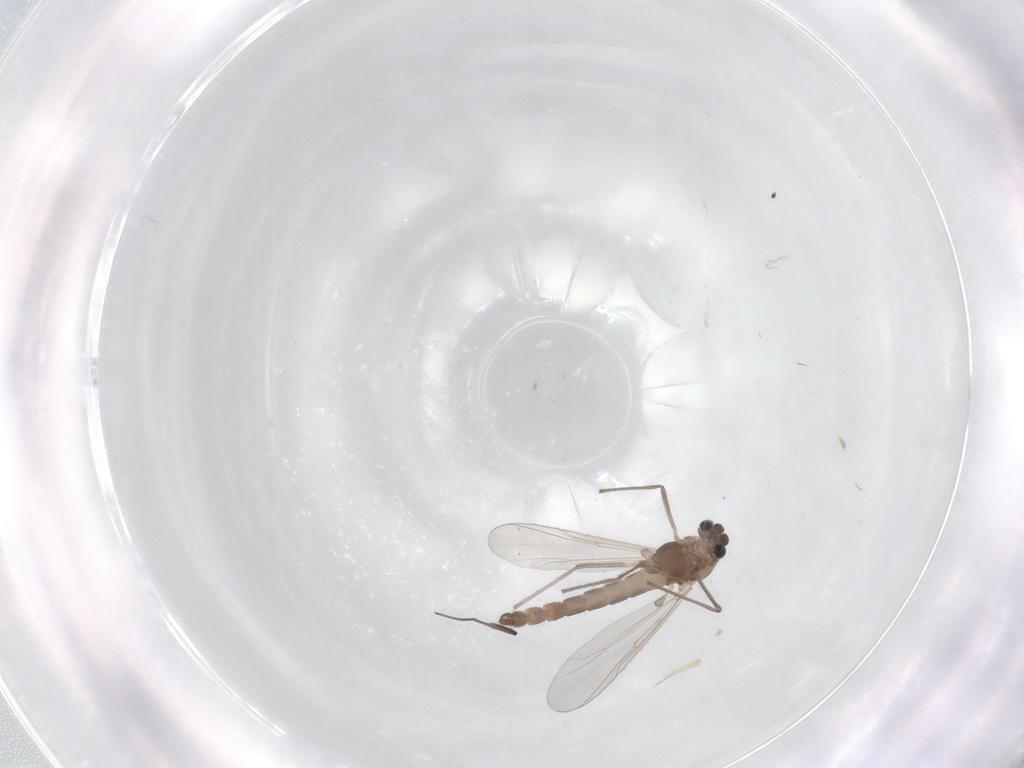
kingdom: Animalia
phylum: Arthropoda
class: Insecta
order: Diptera
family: Chironomidae
